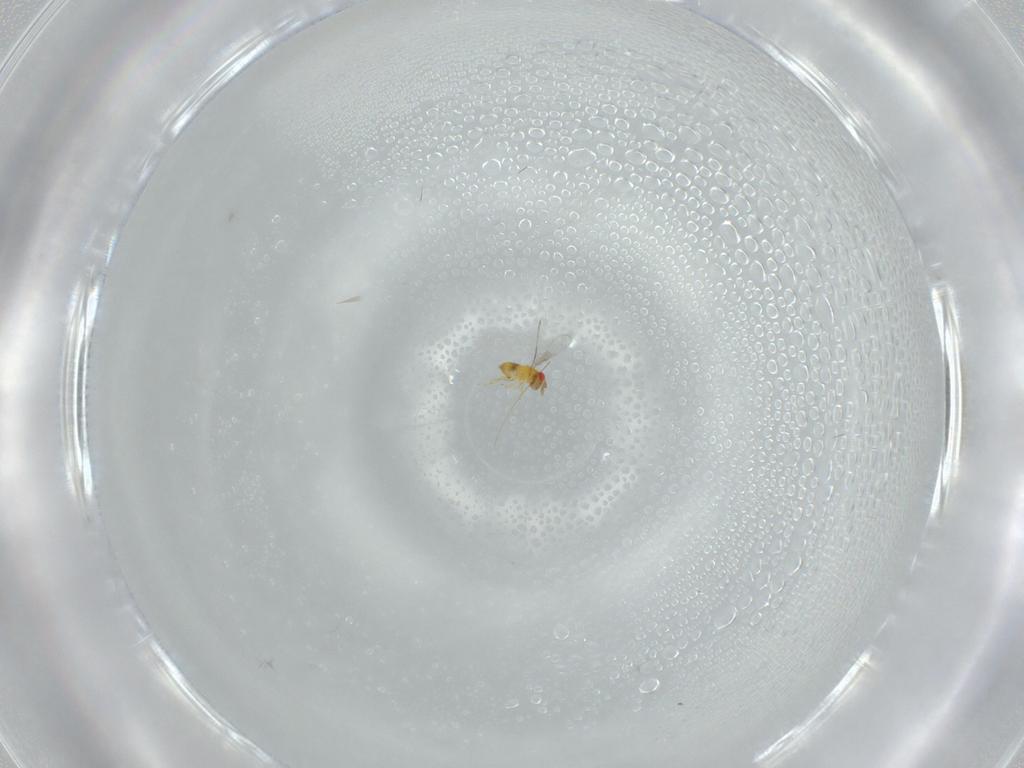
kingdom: Animalia
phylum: Arthropoda
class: Insecta
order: Hymenoptera
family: Trichogrammatidae
